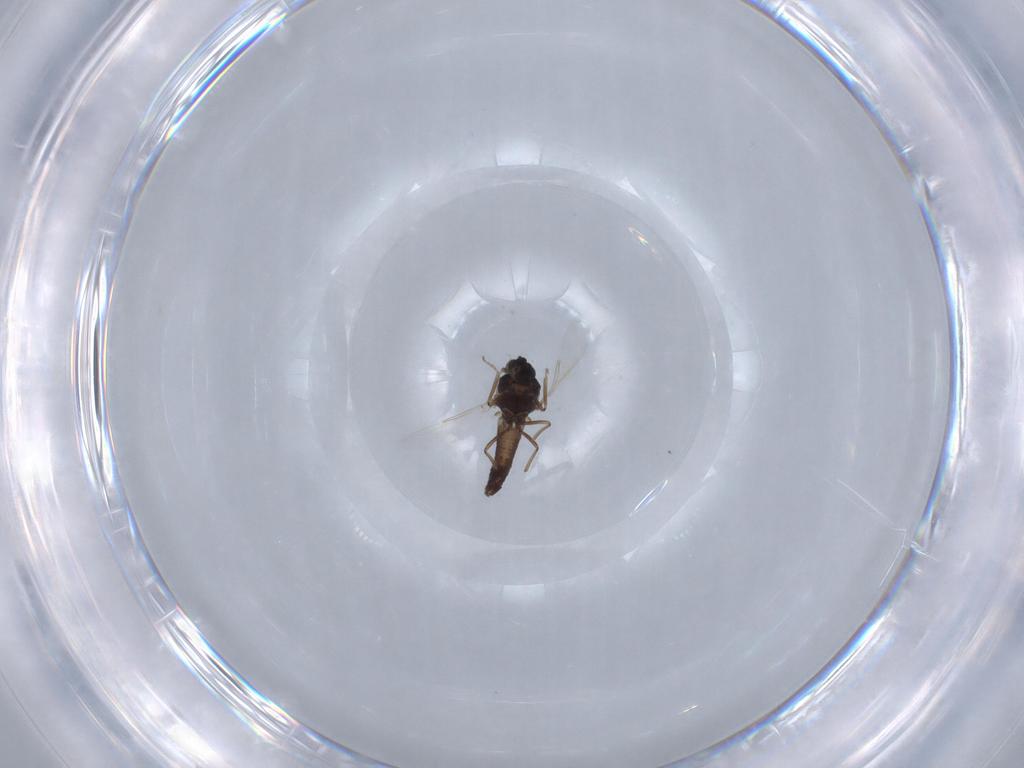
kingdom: Animalia
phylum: Arthropoda
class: Insecta
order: Diptera
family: Ceratopogonidae
